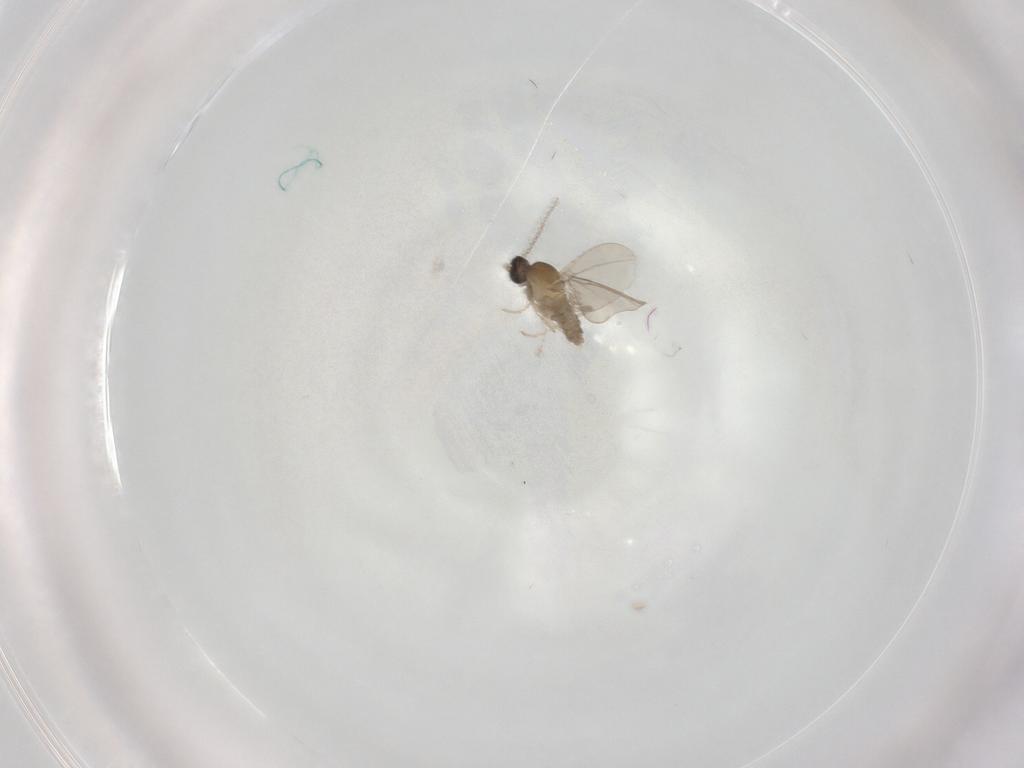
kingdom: Animalia
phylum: Arthropoda
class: Insecta
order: Diptera
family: Cecidomyiidae
